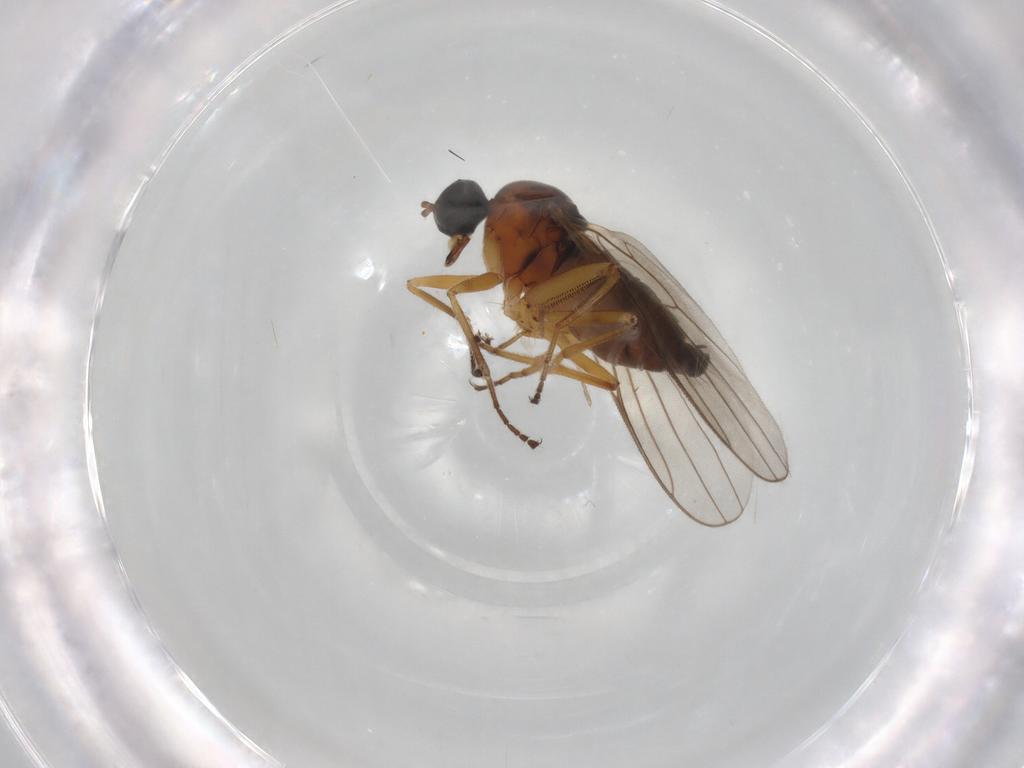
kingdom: Animalia
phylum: Arthropoda
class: Insecta
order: Diptera
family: Hybotidae
